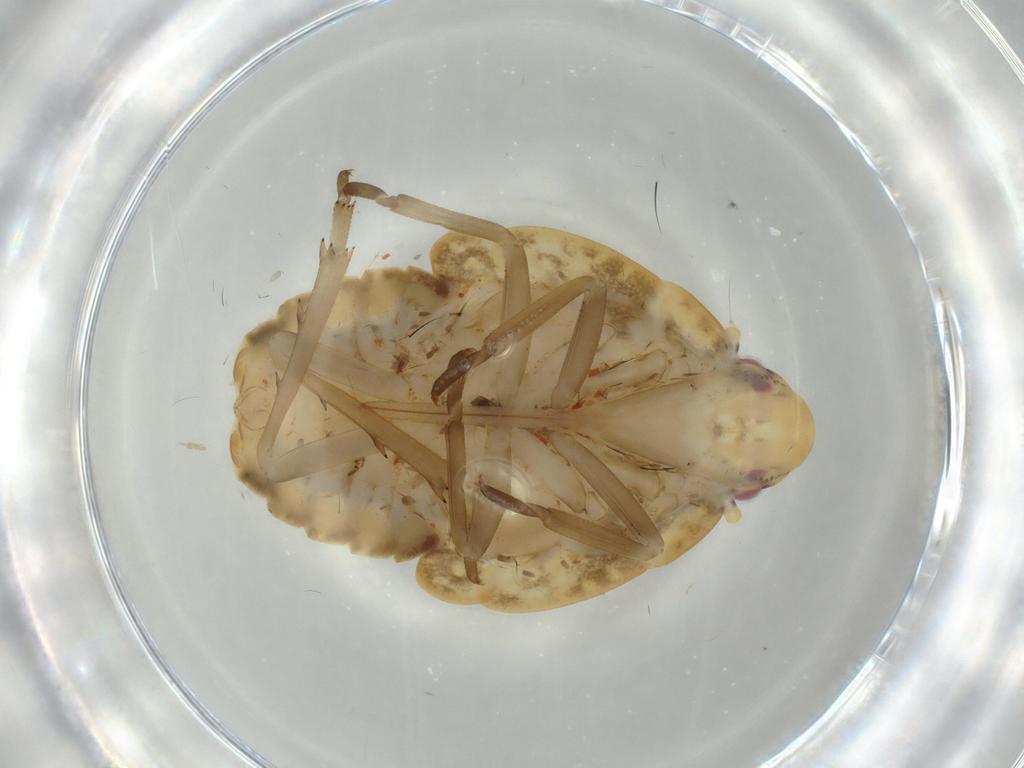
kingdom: Animalia
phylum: Arthropoda
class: Insecta
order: Hemiptera
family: Flatidae
